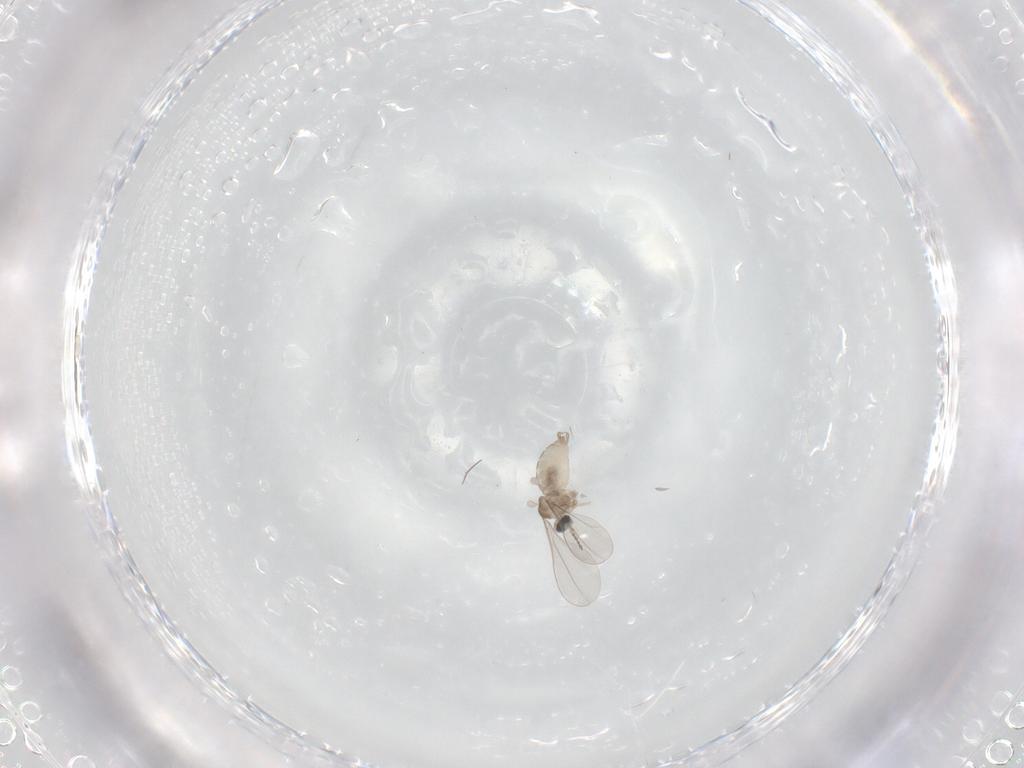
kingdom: Animalia
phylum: Arthropoda
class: Insecta
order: Diptera
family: Cecidomyiidae
